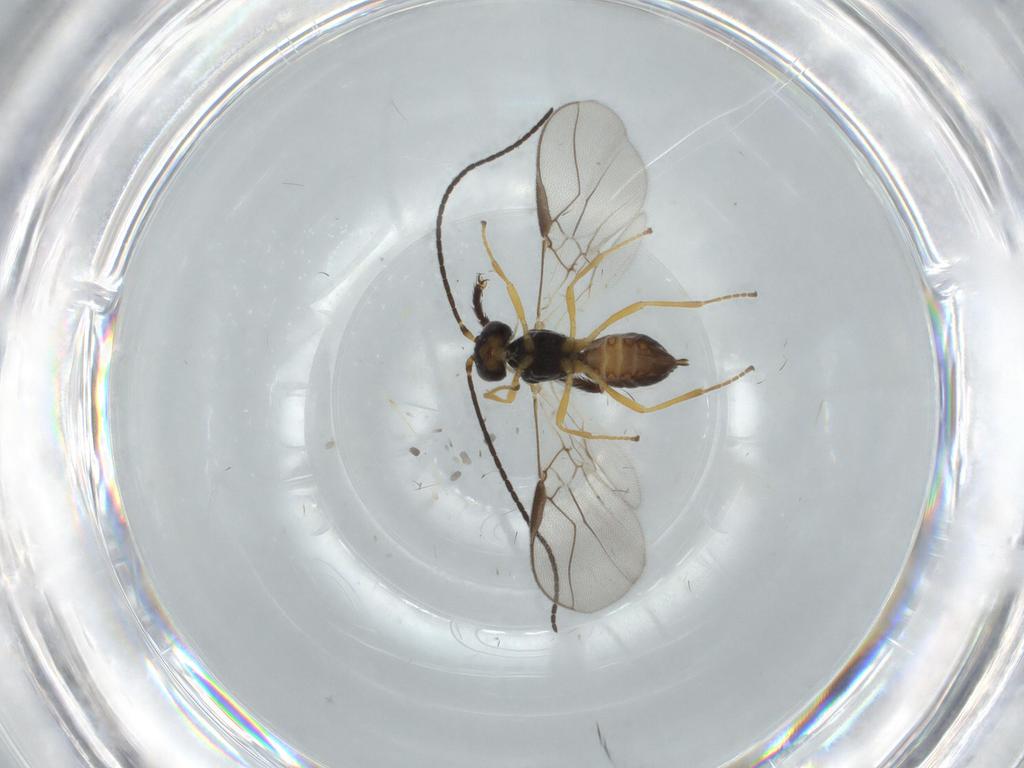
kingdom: Animalia
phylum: Arthropoda
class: Insecta
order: Hymenoptera
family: Braconidae
